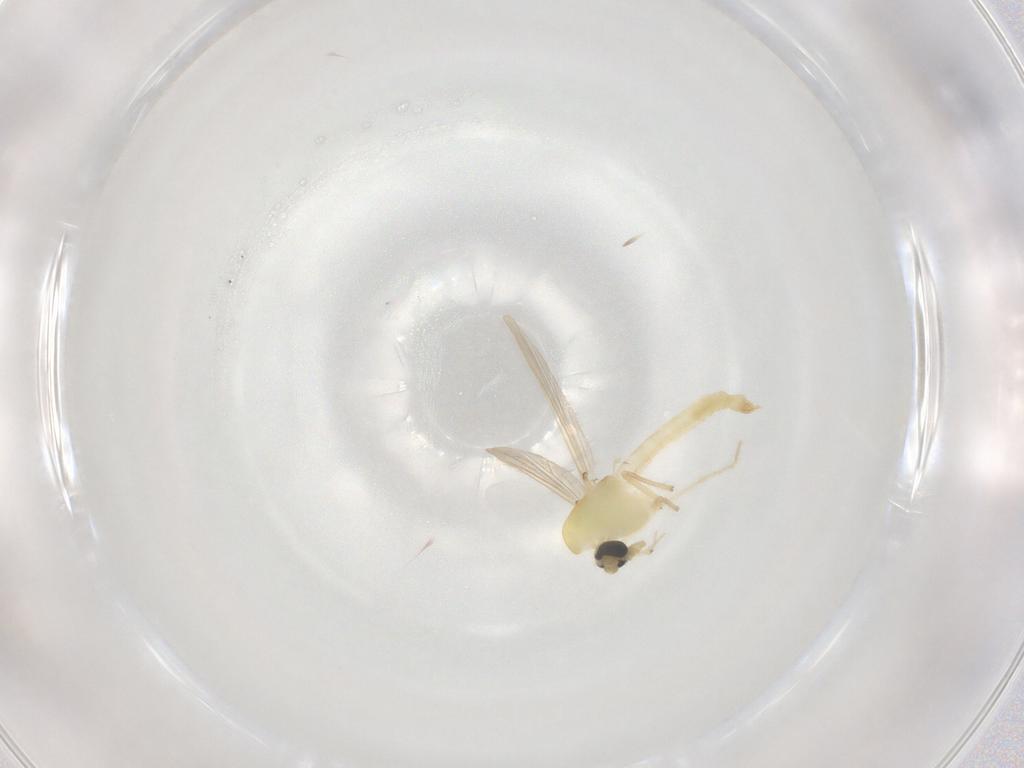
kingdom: Animalia
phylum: Arthropoda
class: Insecta
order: Diptera
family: Chironomidae
